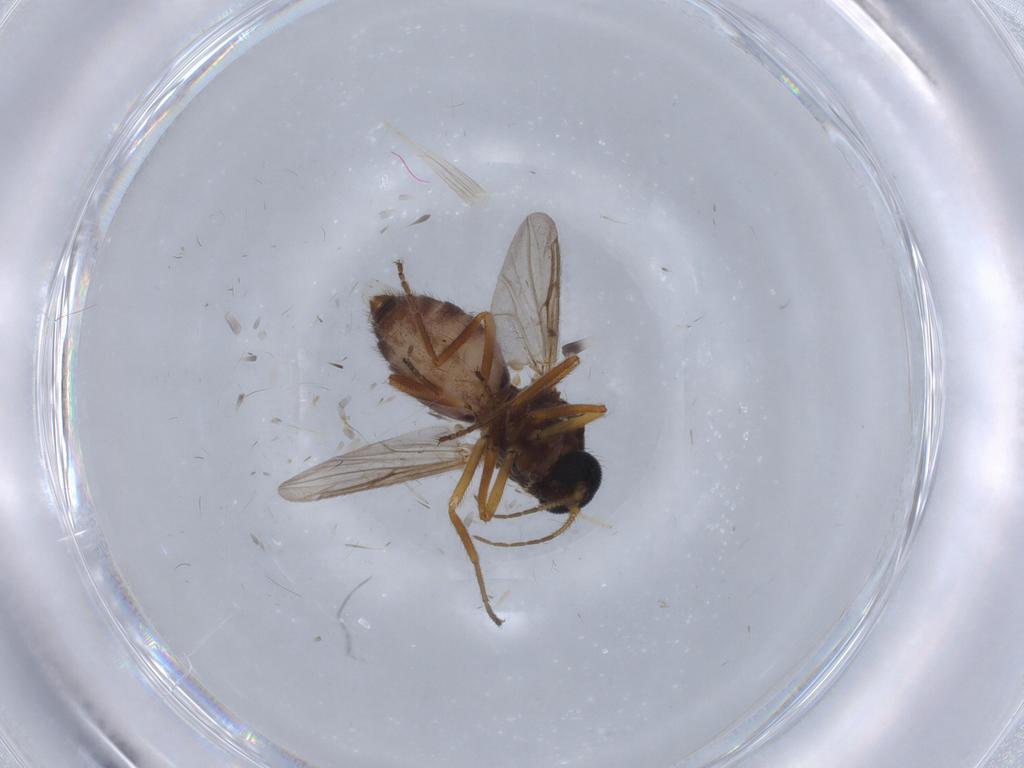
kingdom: Animalia
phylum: Arthropoda
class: Insecta
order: Diptera
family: Ceratopogonidae
